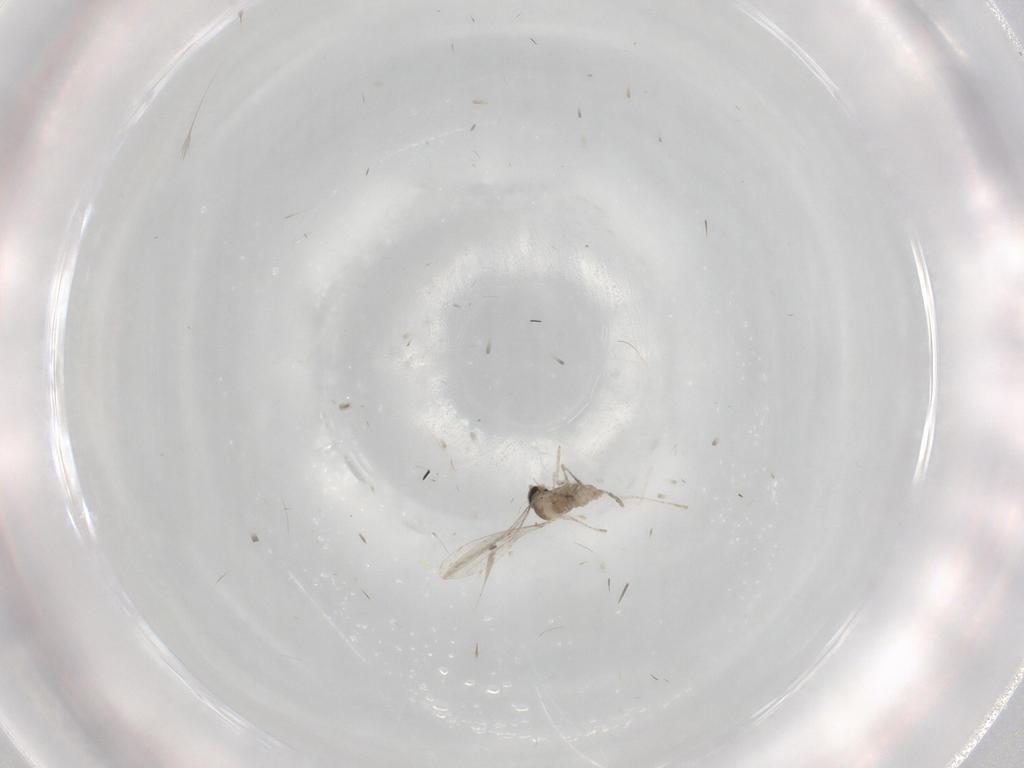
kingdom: Animalia
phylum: Arthropoda
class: Insecta
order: Diptera
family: Cecidomyiidae
